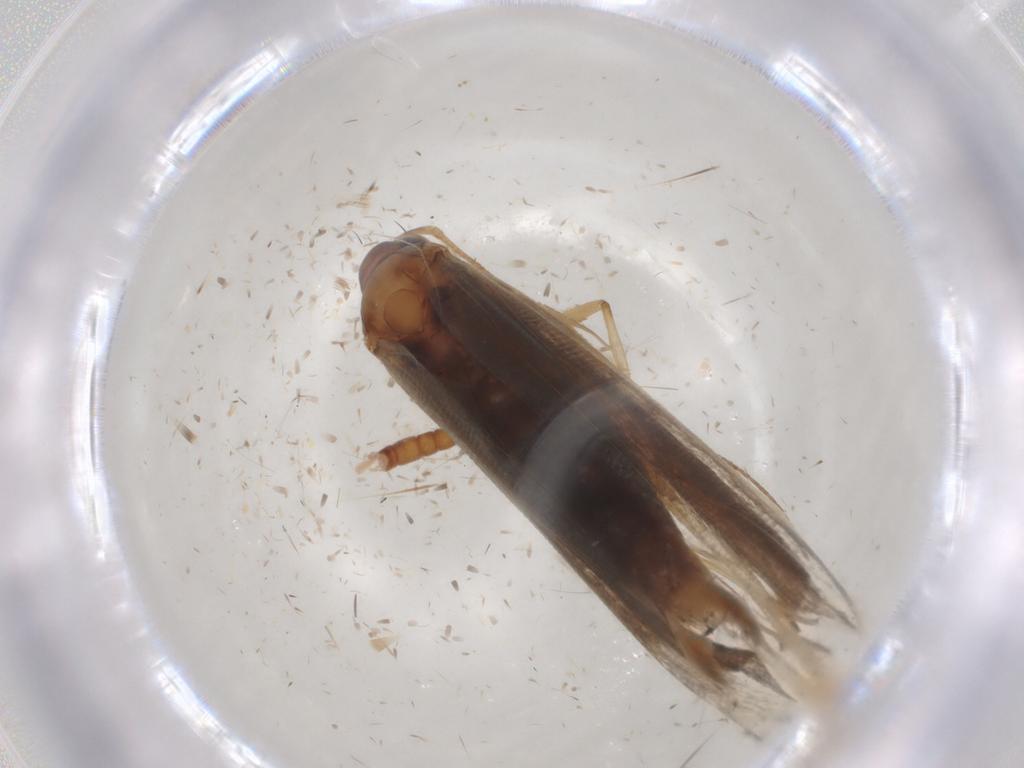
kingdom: Animalia
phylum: Arthropoda
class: Insecta
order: Lepidoptera
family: Gelechiidae
